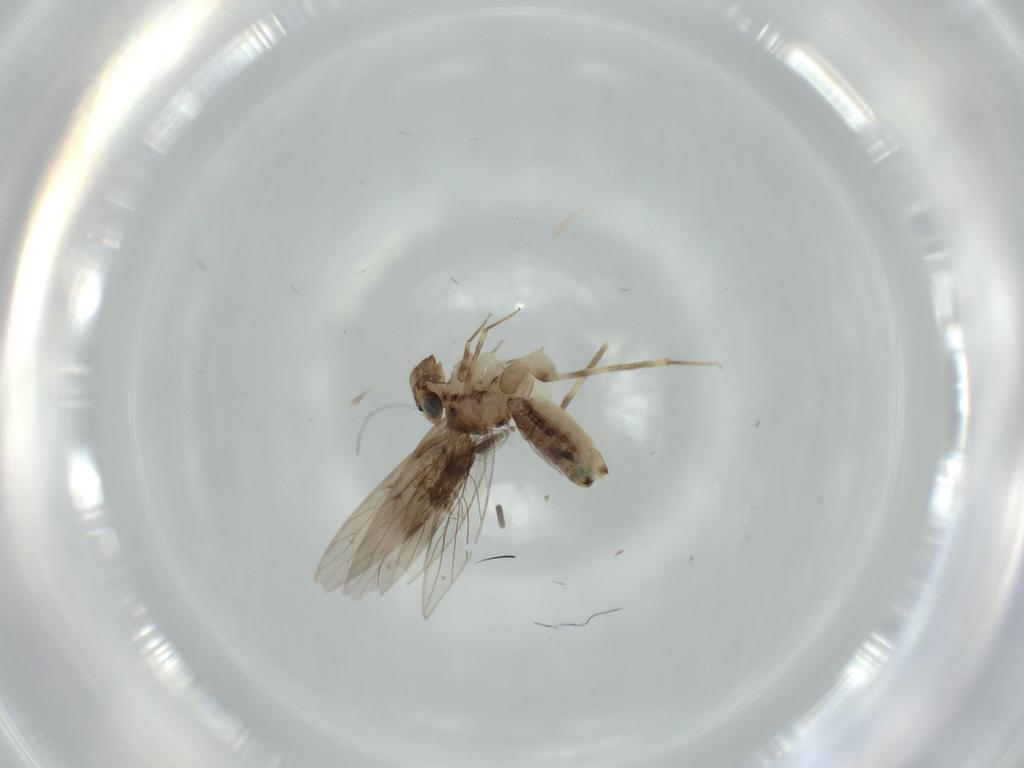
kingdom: Animalia
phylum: Arthropoda
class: Insecta
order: Psocodea
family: Lepidopsocidae
